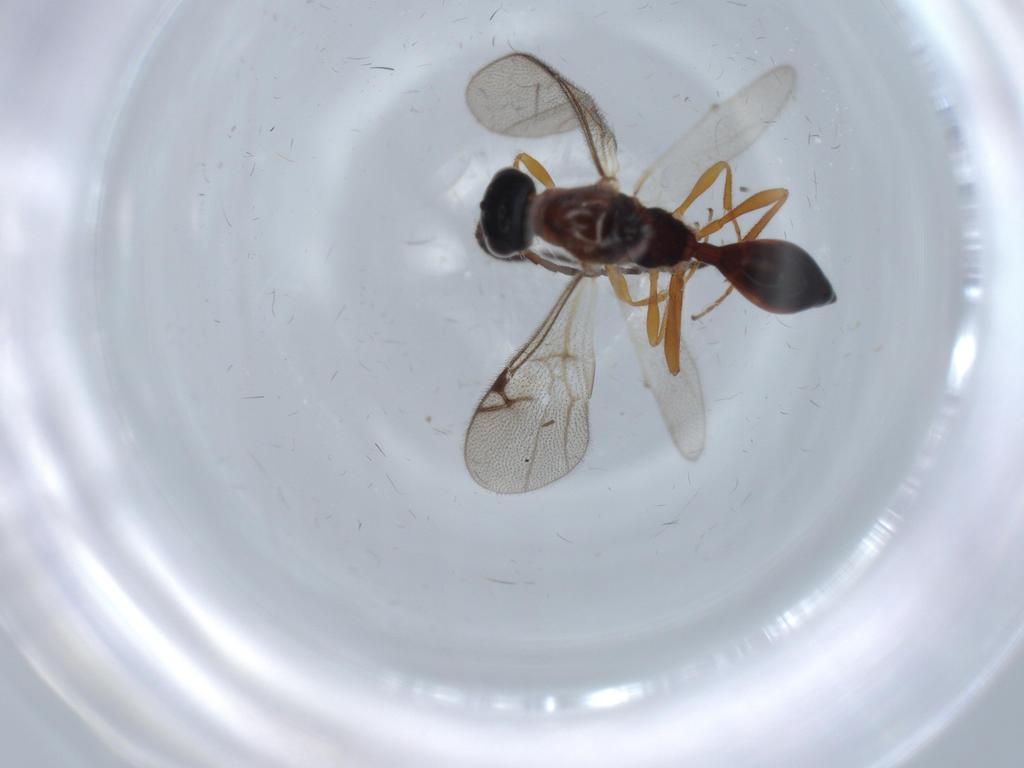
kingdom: Animalia
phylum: Arthropoda
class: Insecta
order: Hymenoptera
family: Proctotrupidae
